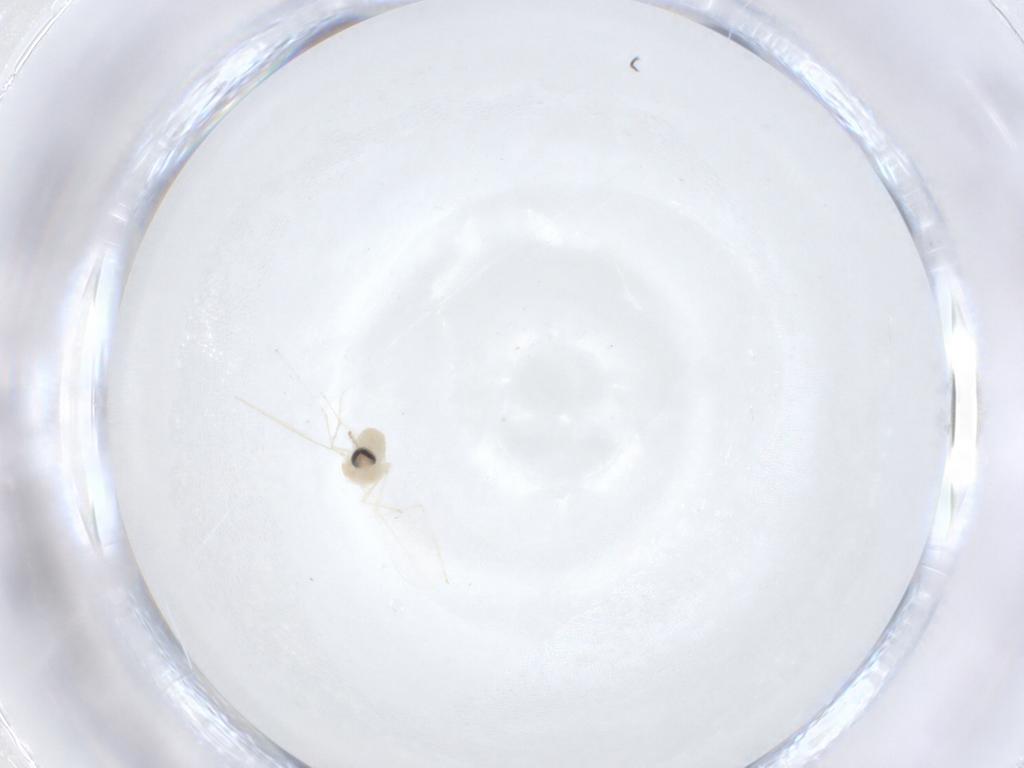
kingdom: Animalia
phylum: Arthropoda
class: Insecta
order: Diptera
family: Cecidomyiidae
